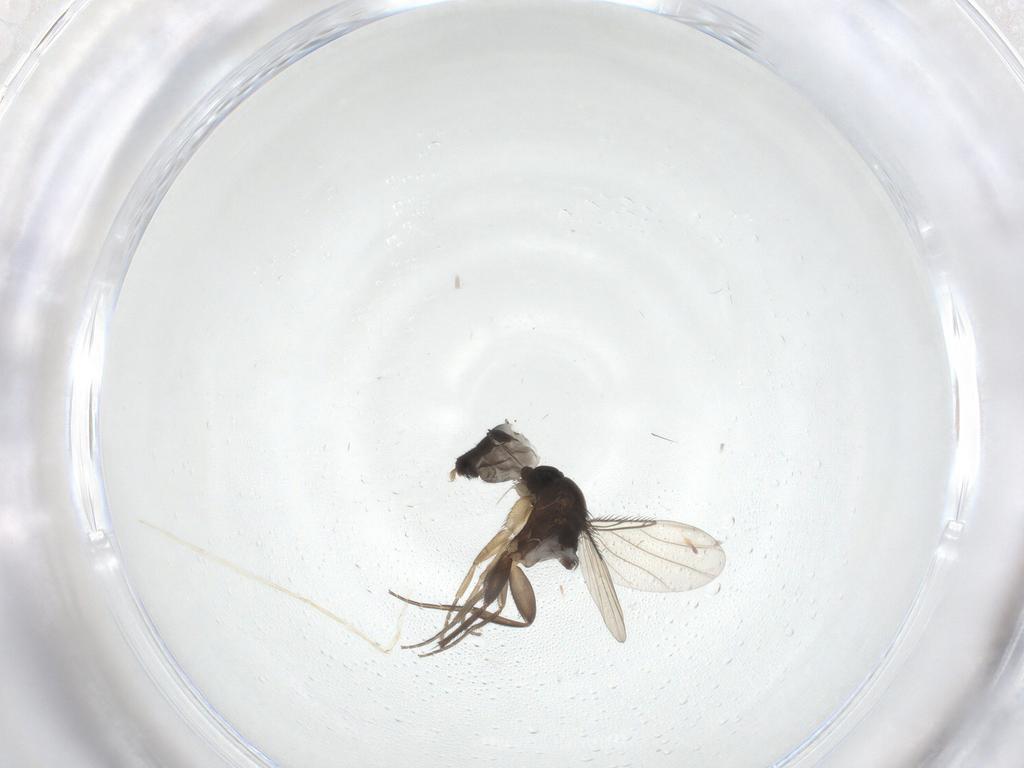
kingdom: Animalia
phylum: Arthropoda
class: Insecta
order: Diptera
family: Phoridae
